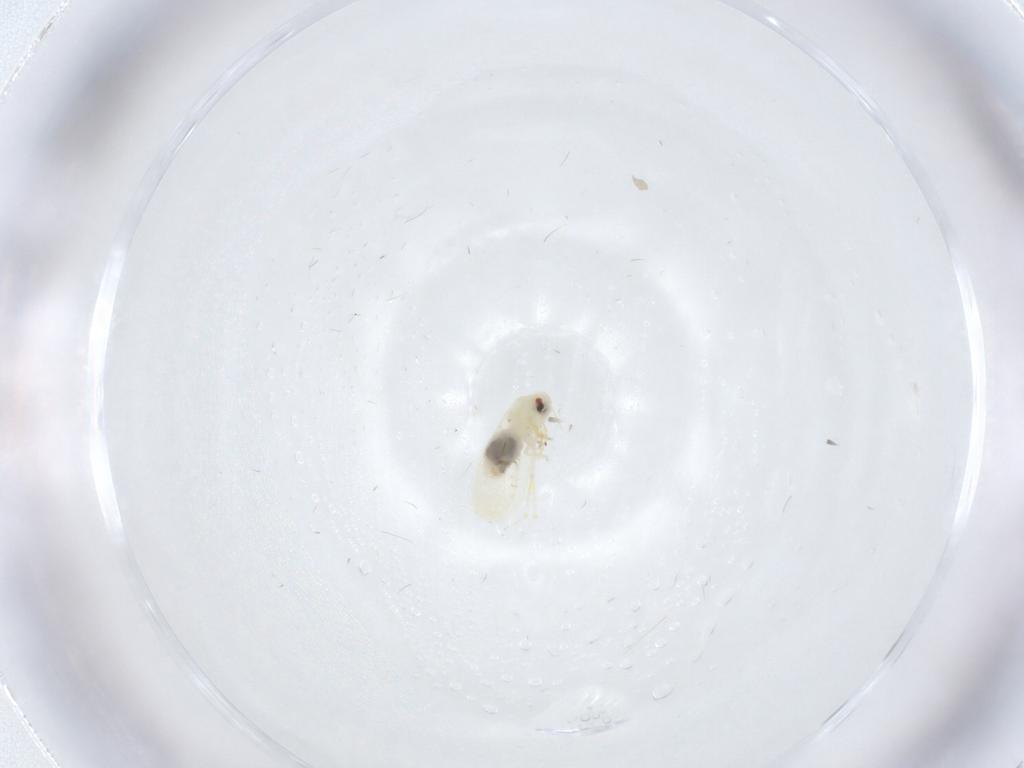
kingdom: Animalia
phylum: Arthropoda
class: Insecta
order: Hemiptera
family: Aleyrodidae
